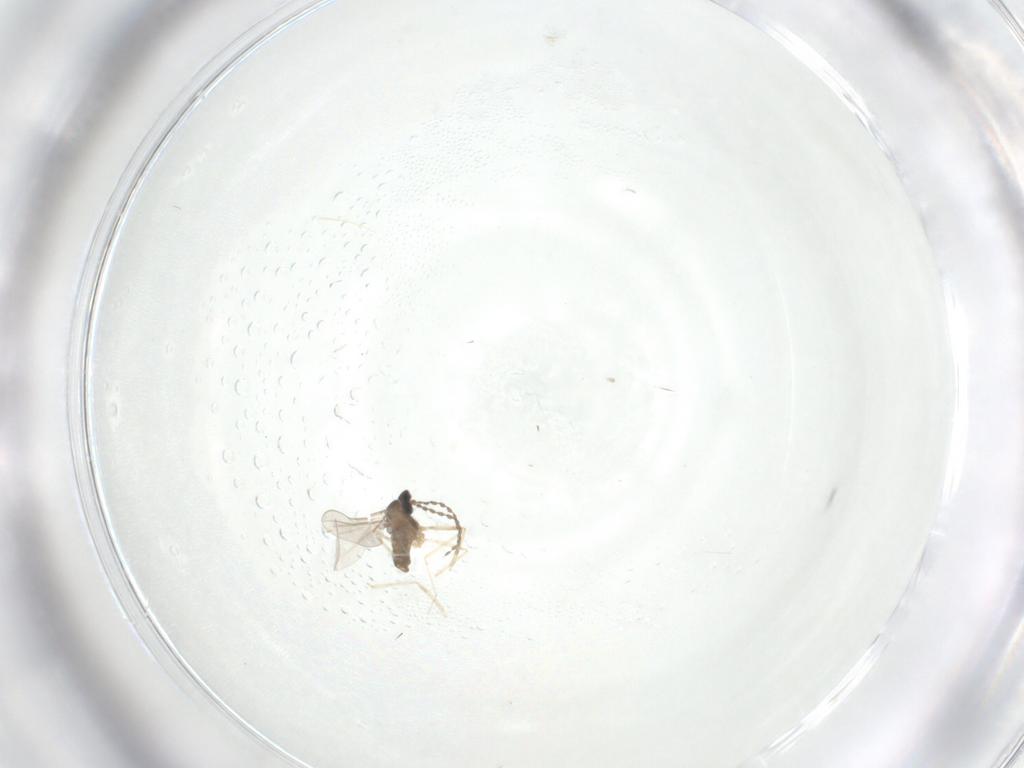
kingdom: Animalia
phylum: Arthropoda
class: Insecta
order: Diptera
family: Cecidomyiidae
